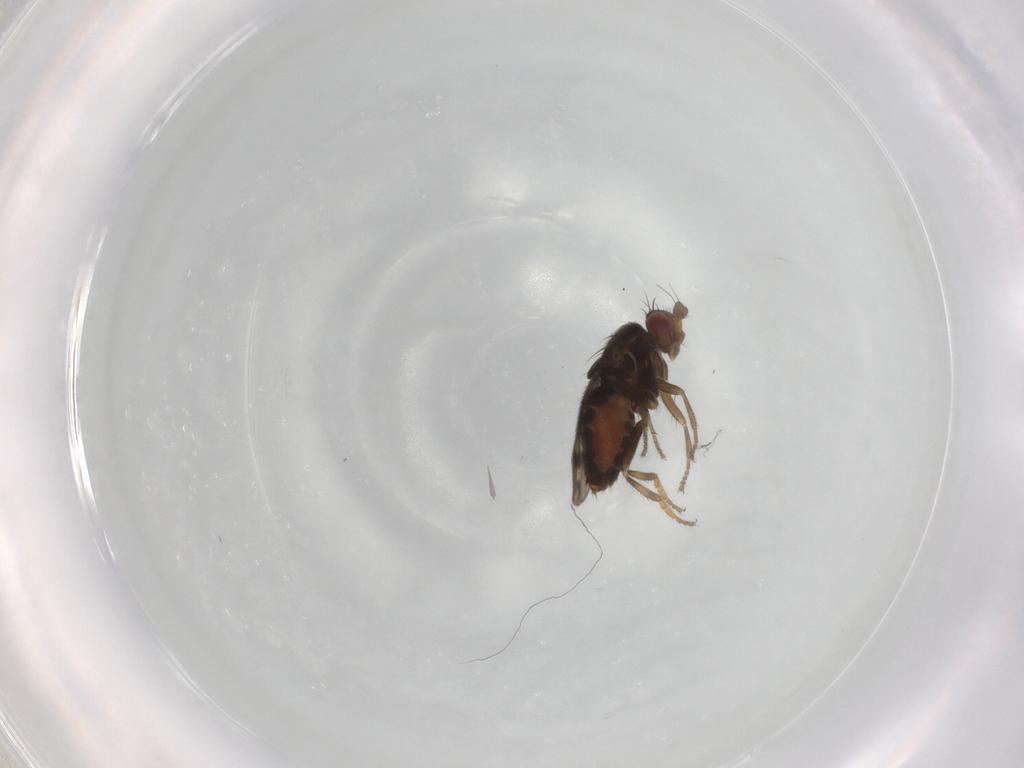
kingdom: Animalia
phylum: Arthropoda
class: Insecta
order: Diptera
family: Sphaeroceridae
